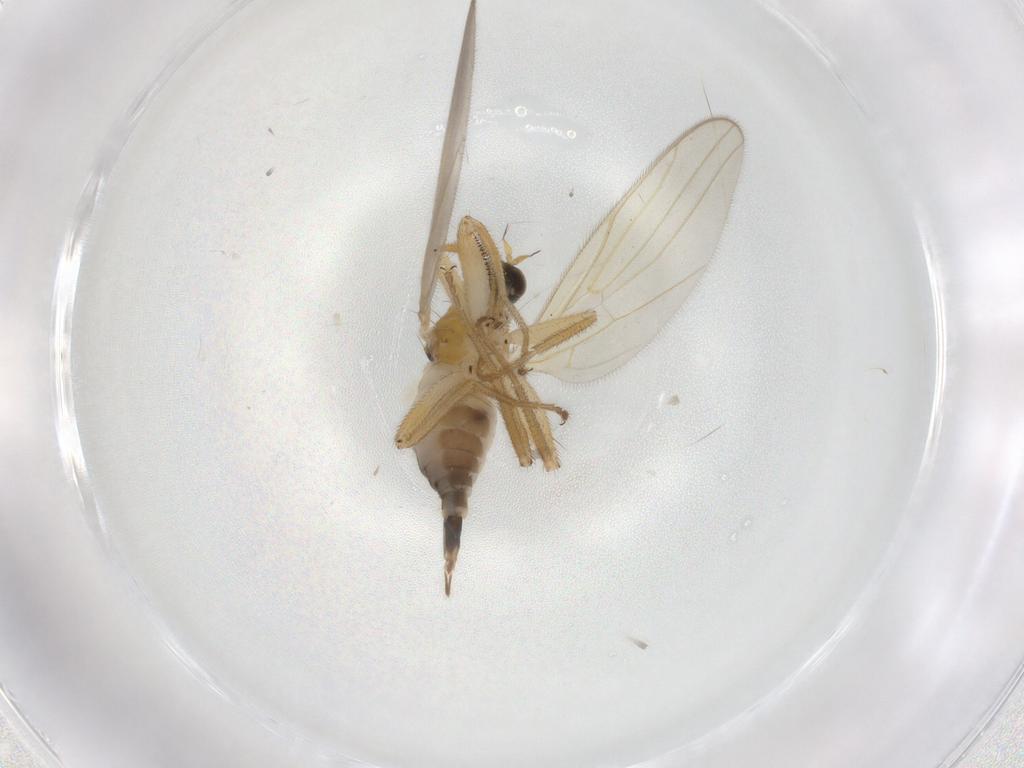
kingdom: Animalia
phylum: Arthropoda
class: Insecta
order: Diptera
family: Hybotidae
